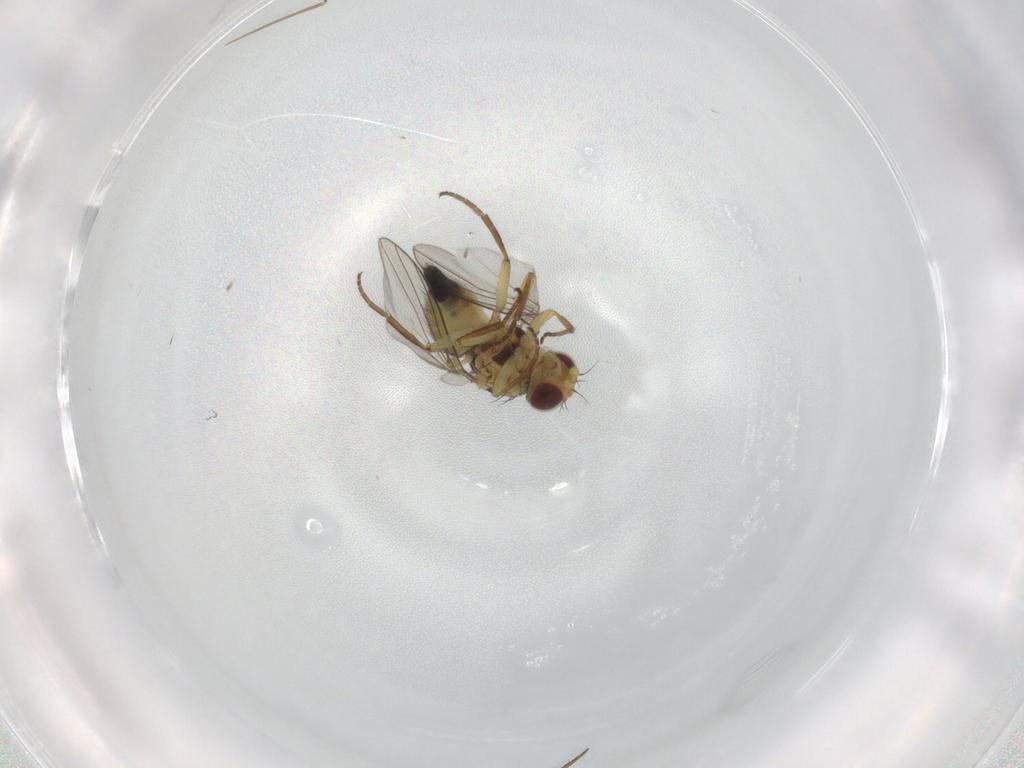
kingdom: Animalia
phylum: Arthropoda
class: Insecta
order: Diptera
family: Agromyzidae
